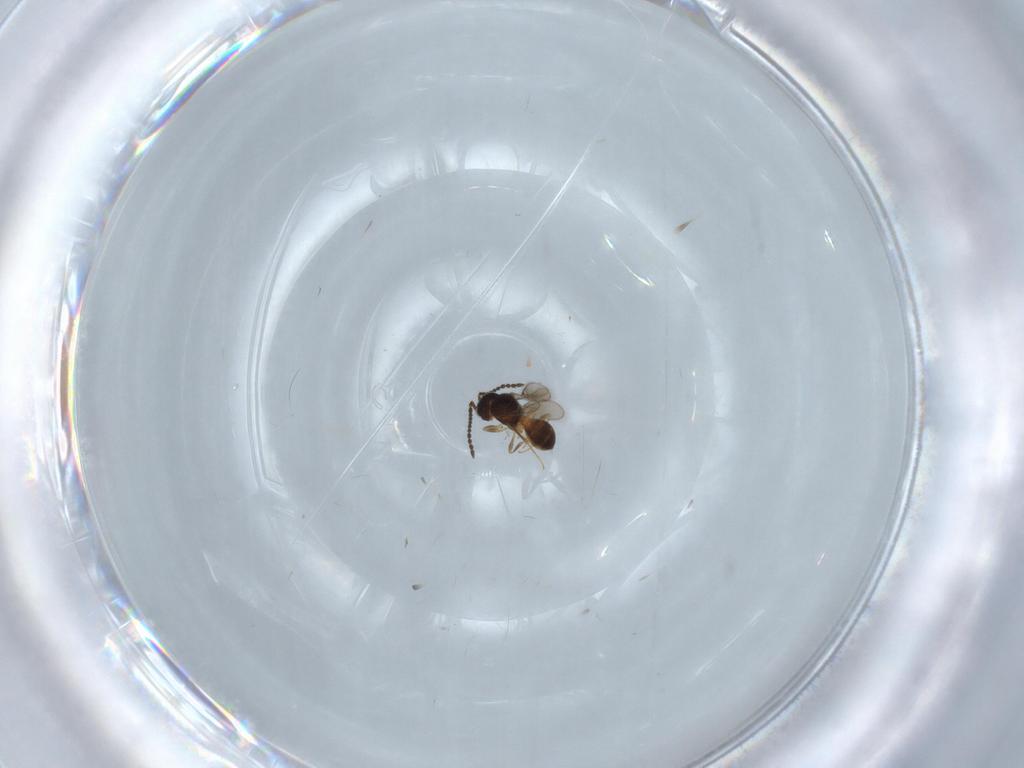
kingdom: Animalia
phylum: Arthropoda
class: Insecta
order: Hymenoptera
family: Scelionidae
